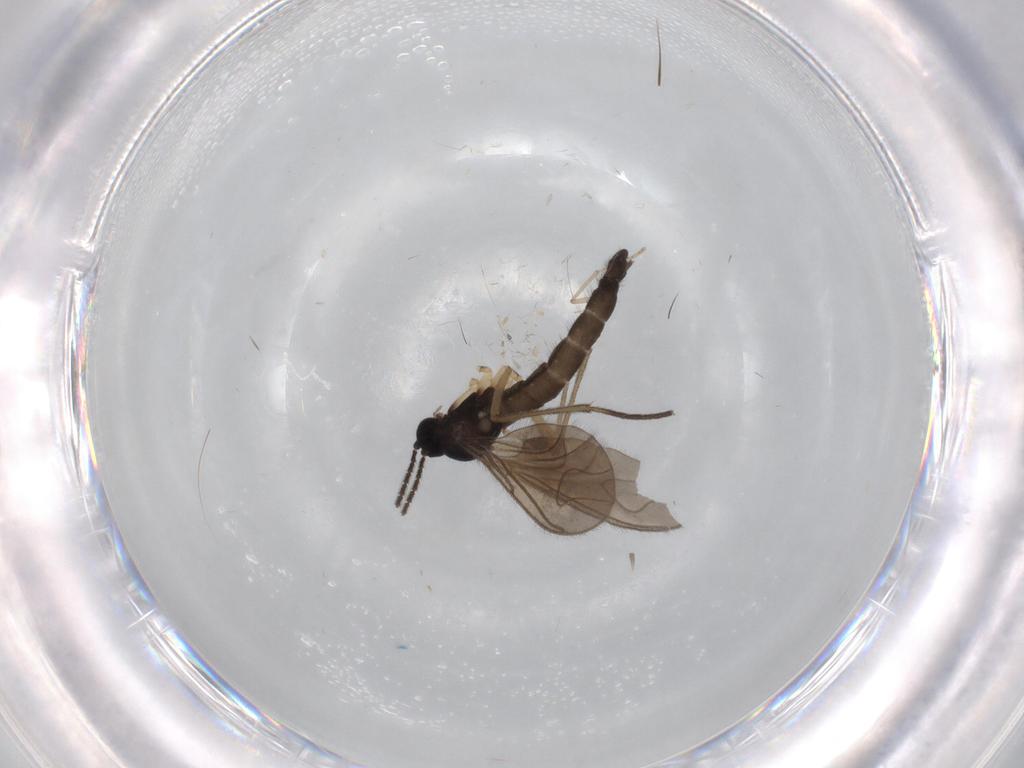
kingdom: Animalia
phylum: Arthropoda
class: Insecta
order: Diptera
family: Sciaridae
